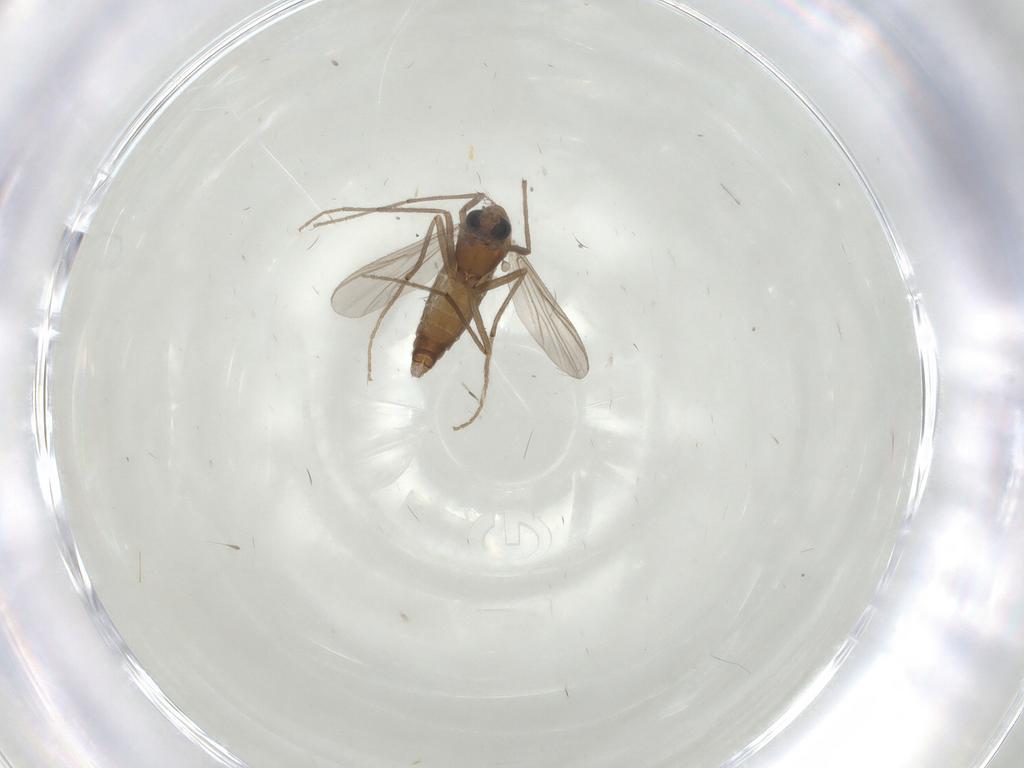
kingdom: Animalia
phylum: Arthropoda
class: Insecta
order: Diptera
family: Chironomidae
